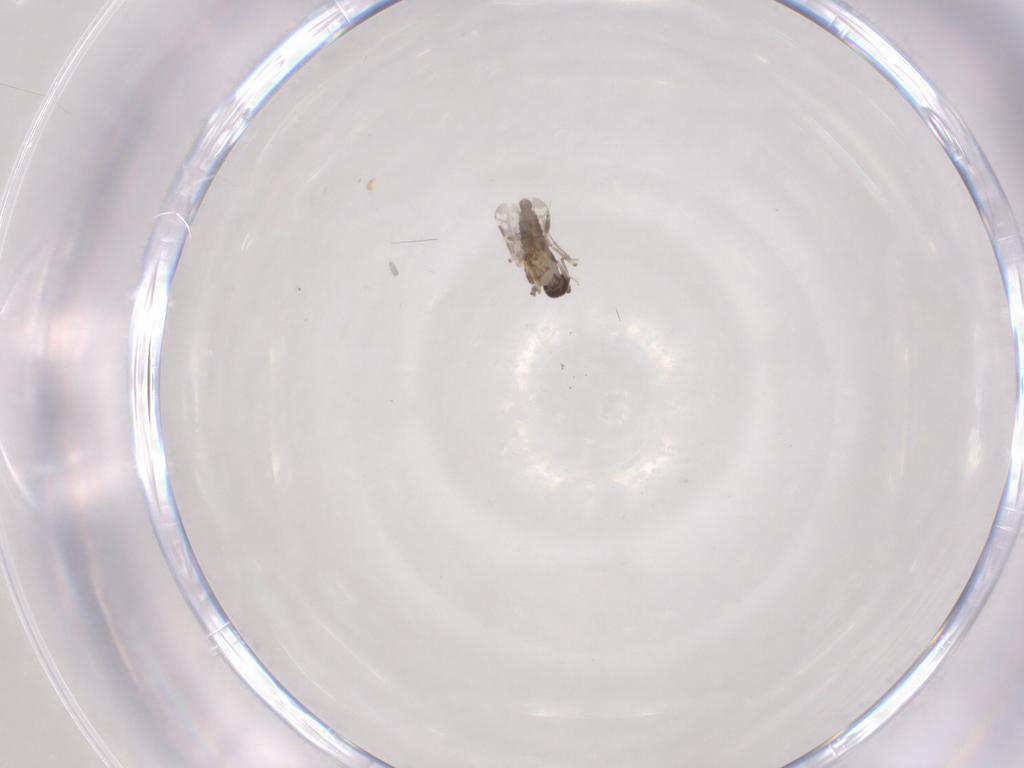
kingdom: Animalia
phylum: Arthropoda
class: Insecta
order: Diptera
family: Ceratopogonidae
